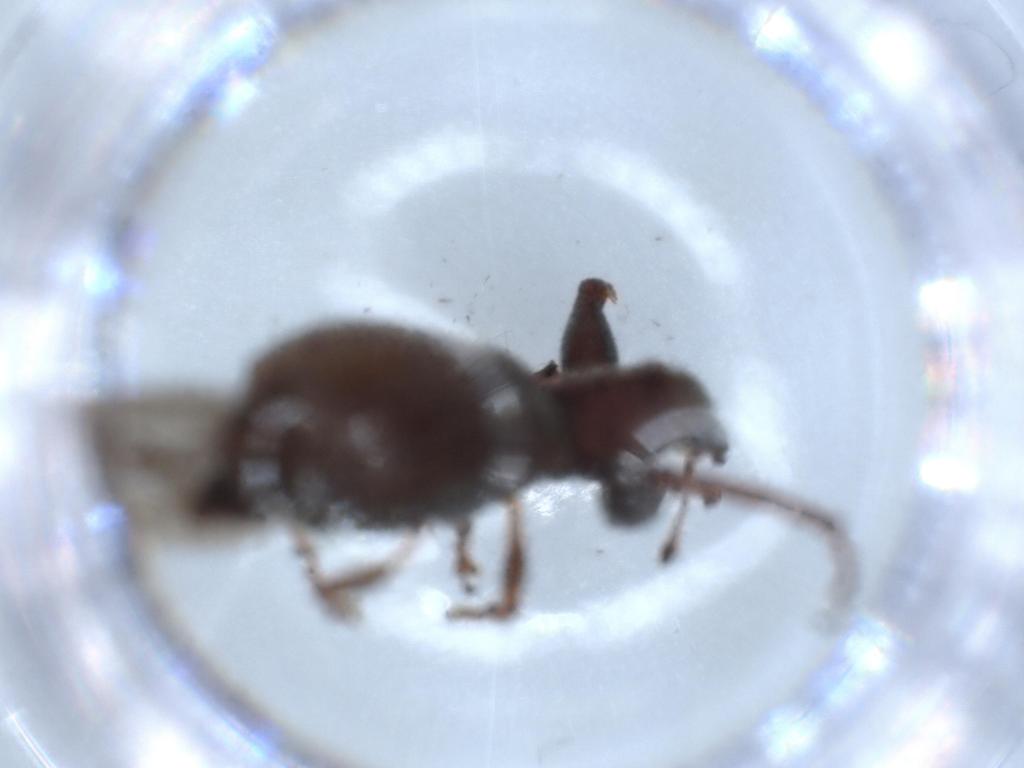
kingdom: Animalia
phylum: Arthropoda
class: Insecta
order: Coleoptera
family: Curculionidae
